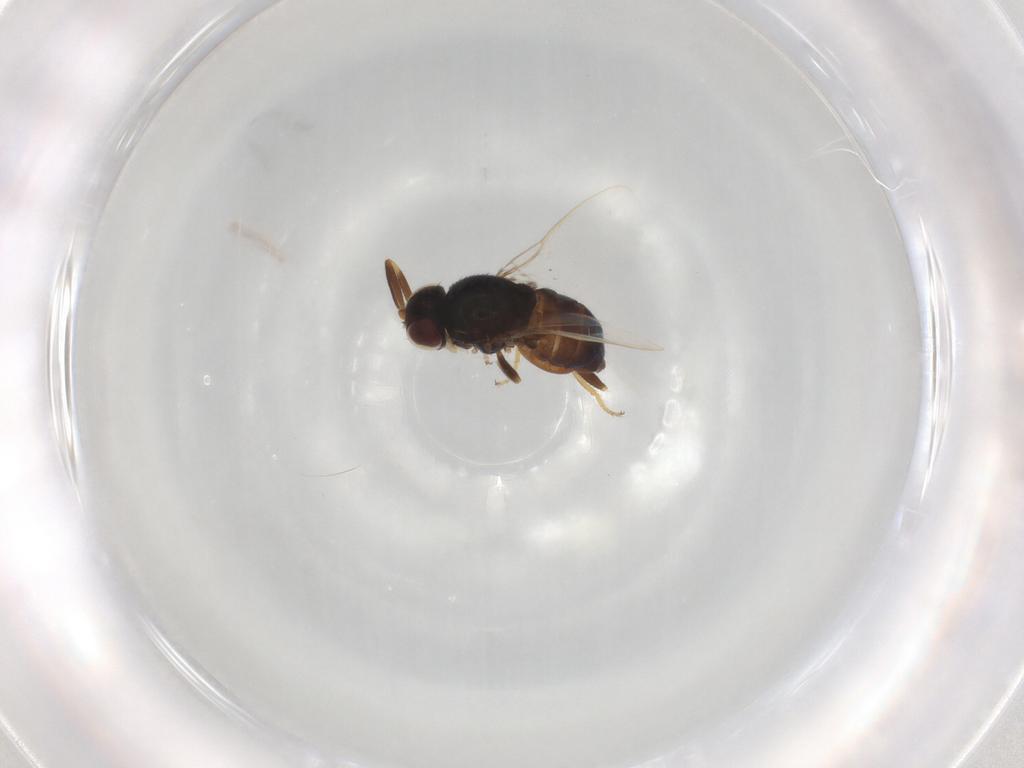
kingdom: Animalia
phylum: Arthropoda
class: Insecta
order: Diptera
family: Chloropidae
